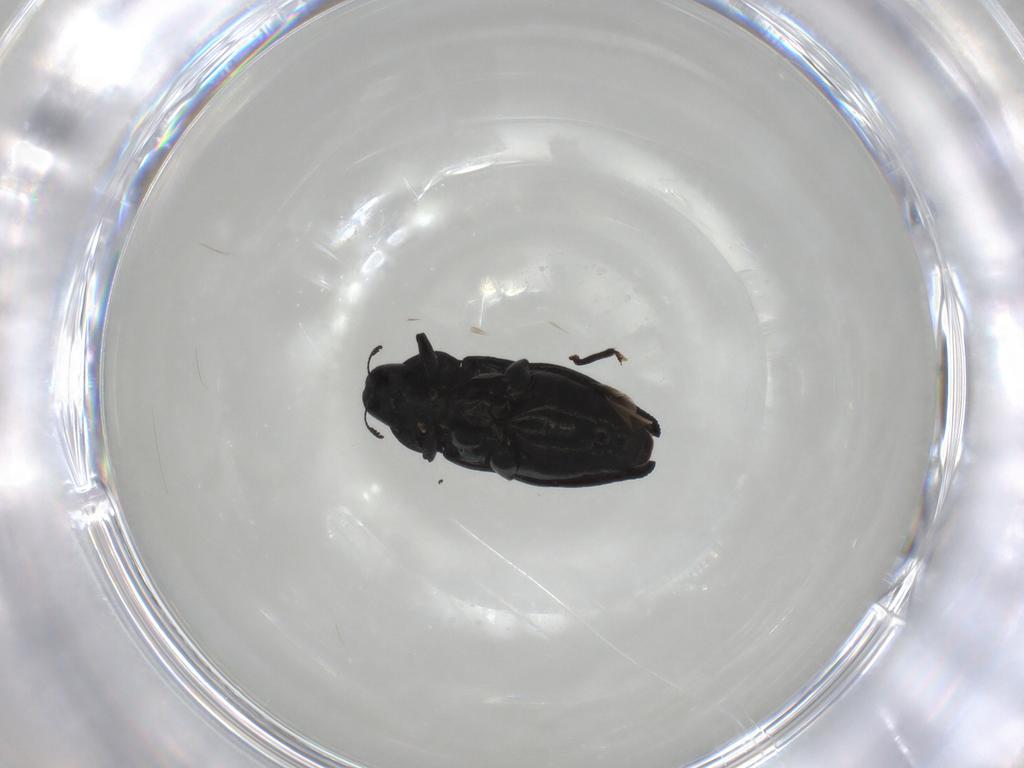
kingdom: Animalia
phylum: Arthropoda
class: Insecta
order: Coleoptera
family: Buprestidae
